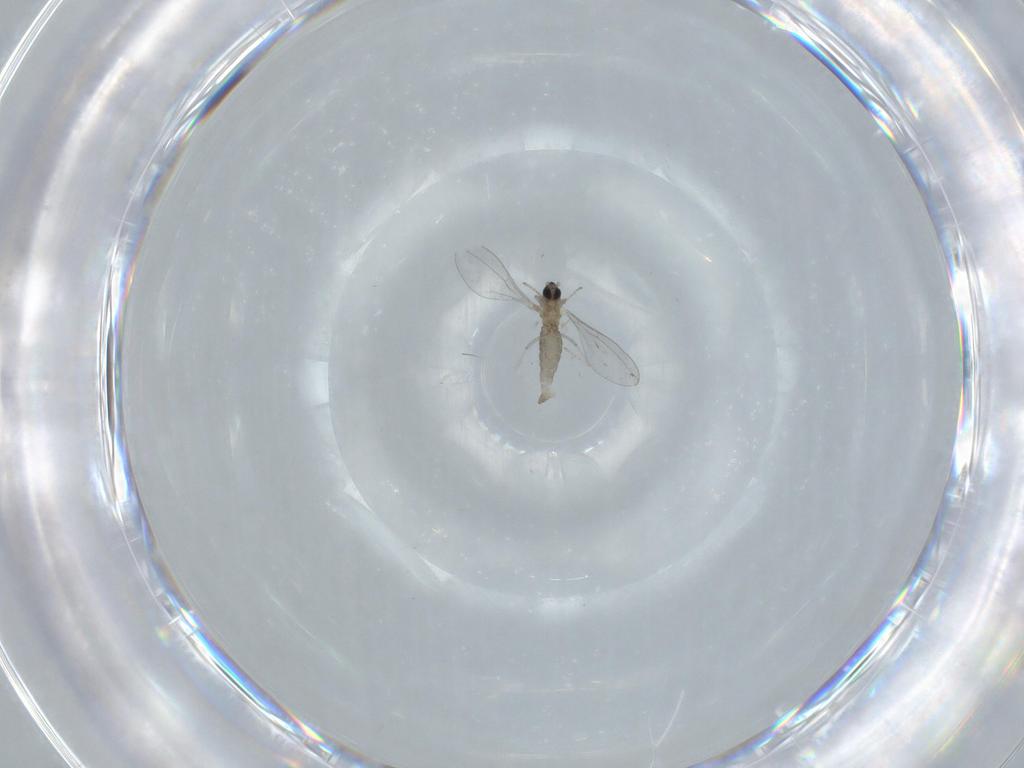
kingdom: Animalia
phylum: Arthropoda
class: Insecta
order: Diptera
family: Cecidomyiidae
